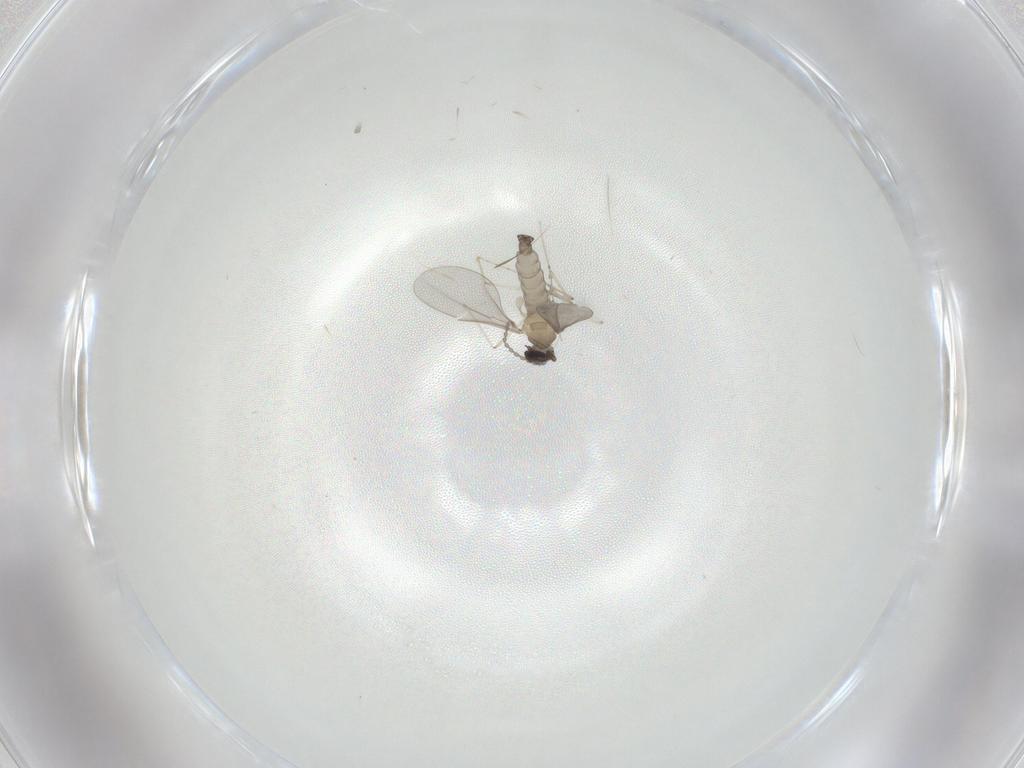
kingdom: Animalia
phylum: Arthropoda
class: Insecta
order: Diptera
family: Cecidomyiidae
